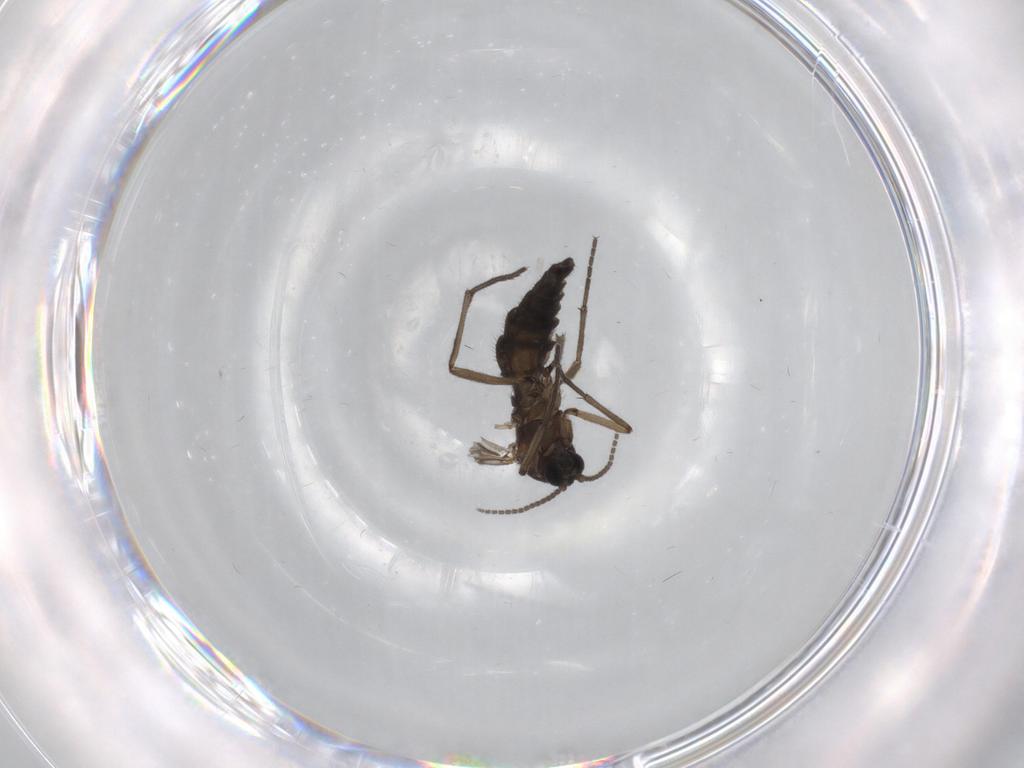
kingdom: Animalia
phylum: Arthropoda
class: Insecta
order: Diptera
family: Sciaridae
